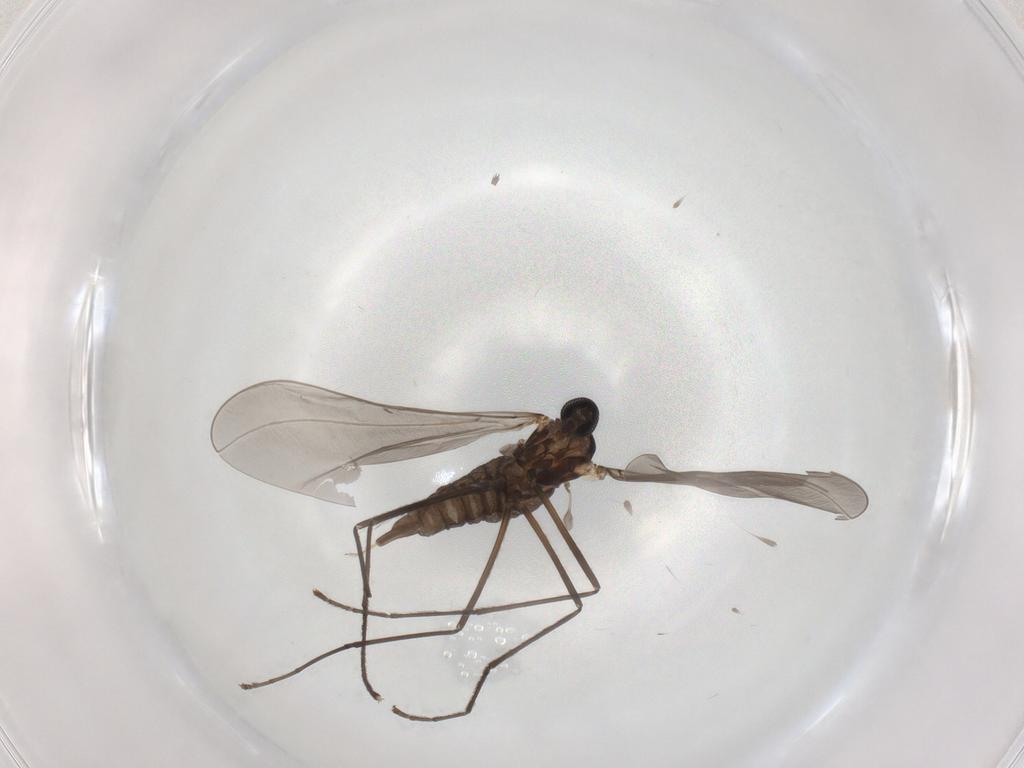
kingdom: Animalia
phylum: Arthropoda
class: Insecta
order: Diptera
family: Cecidomyiidae
